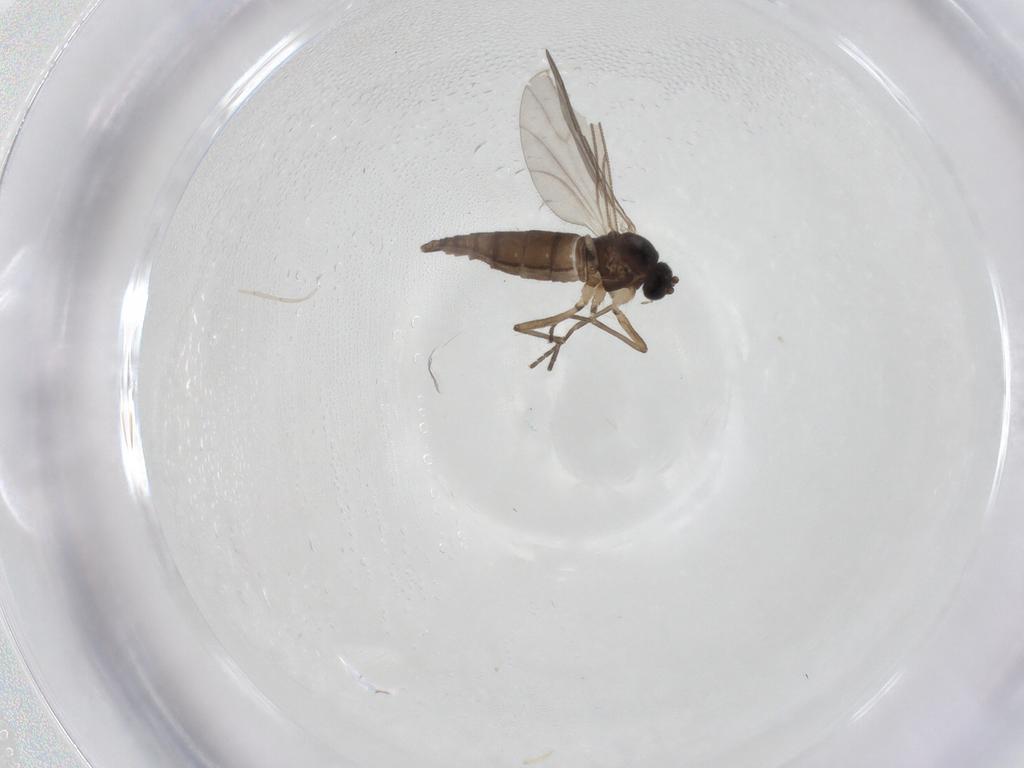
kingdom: Animalia
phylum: Arthropoda
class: Insecta
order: Diptera
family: Sciaridae
